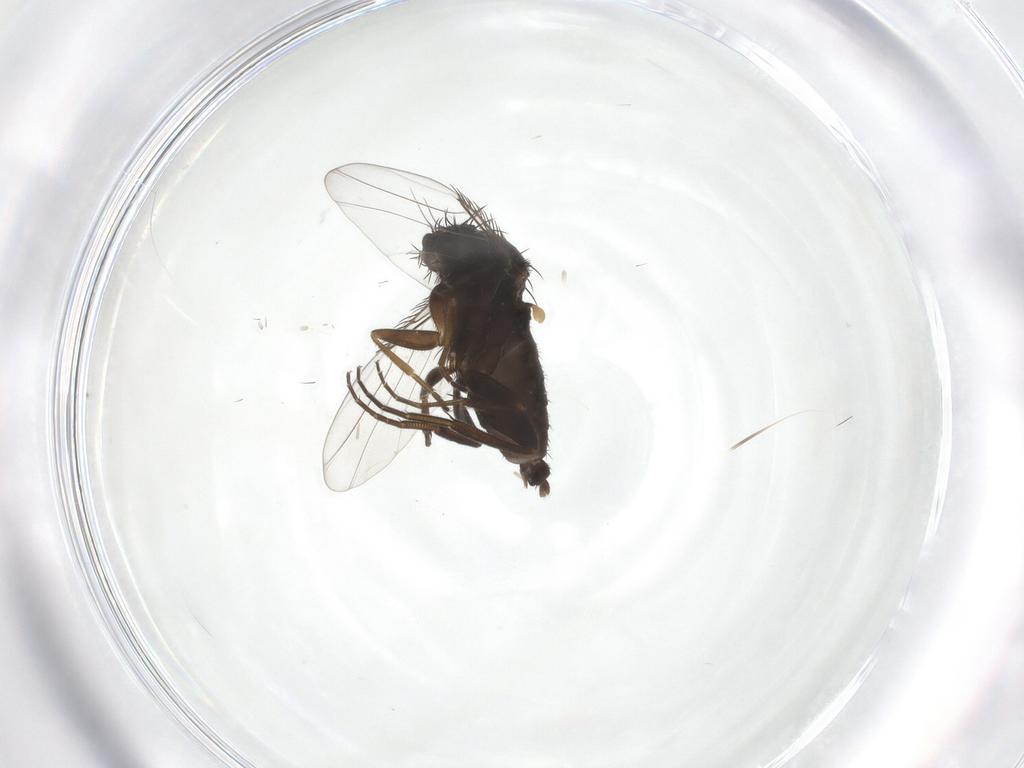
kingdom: Animalia
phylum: Arthropoda
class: Insecta
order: Diptera
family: Phoridae
